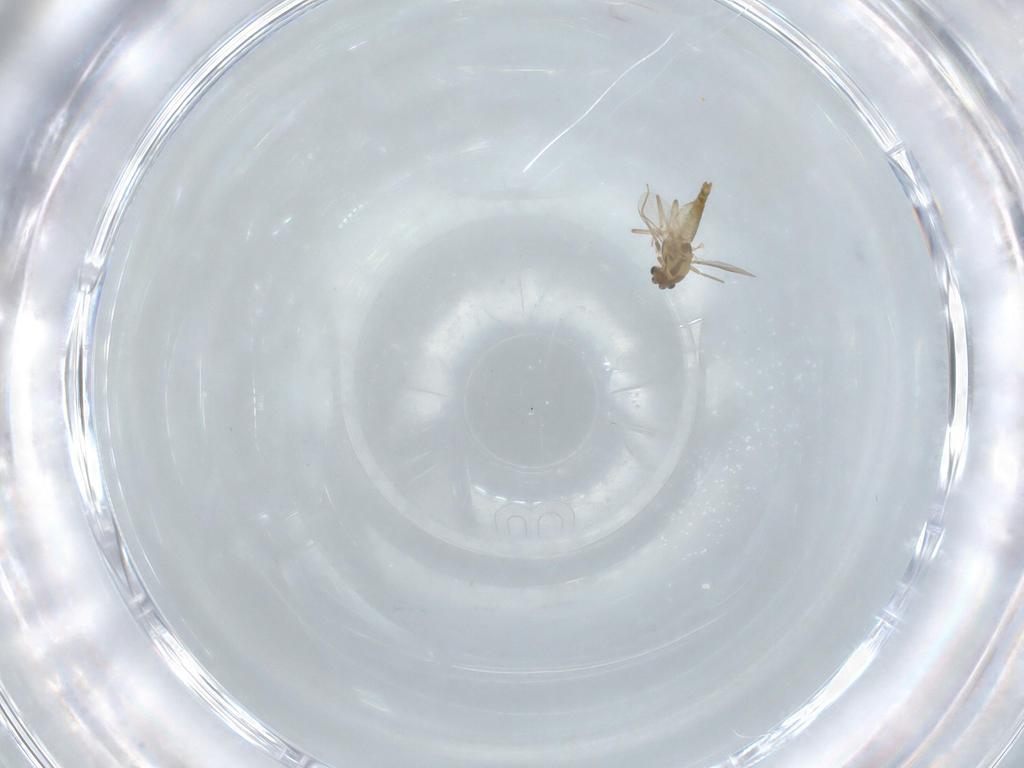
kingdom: Animalia
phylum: Arthropoda
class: Insecta
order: Diptera
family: Chironomidae
